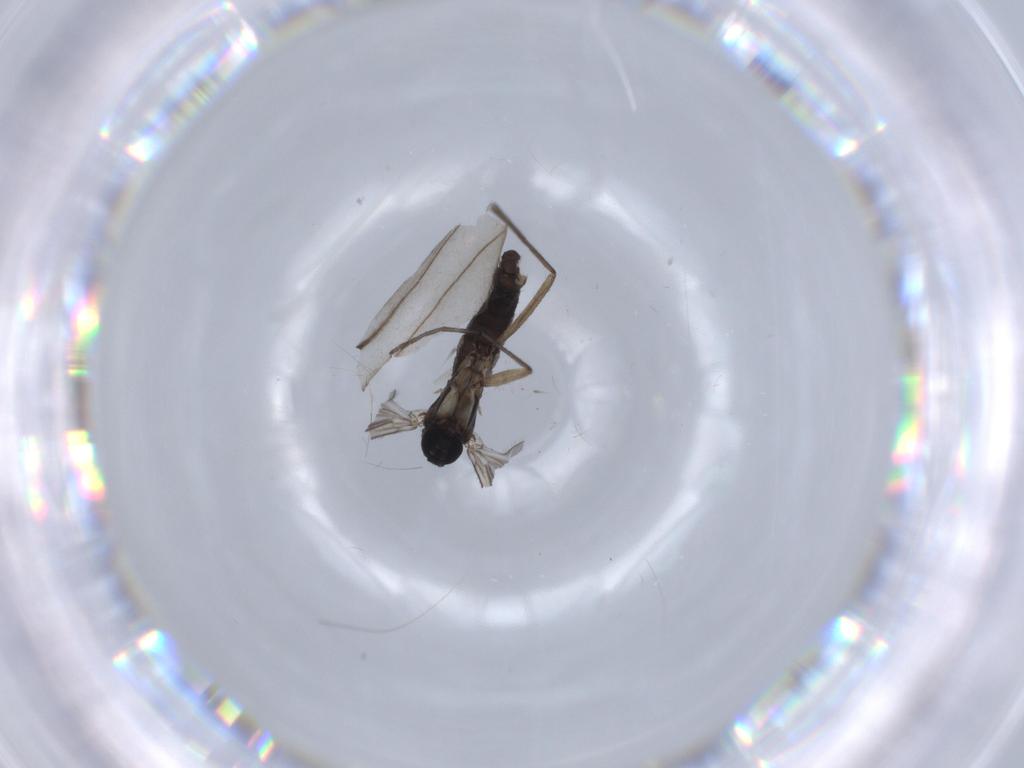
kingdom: Animalia
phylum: Arthropoda
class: Insecta
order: Diptera
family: Sciaridae
